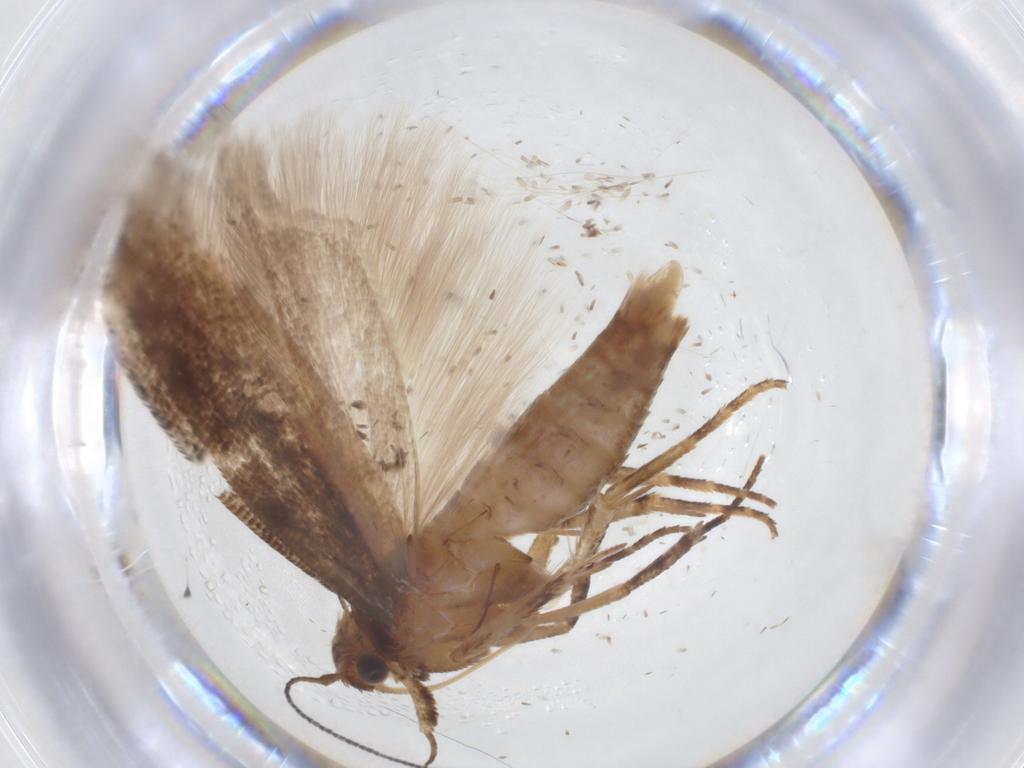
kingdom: Animalia
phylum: Arthropoda
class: Insecta
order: Lepidoptera
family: Gelechiidae
